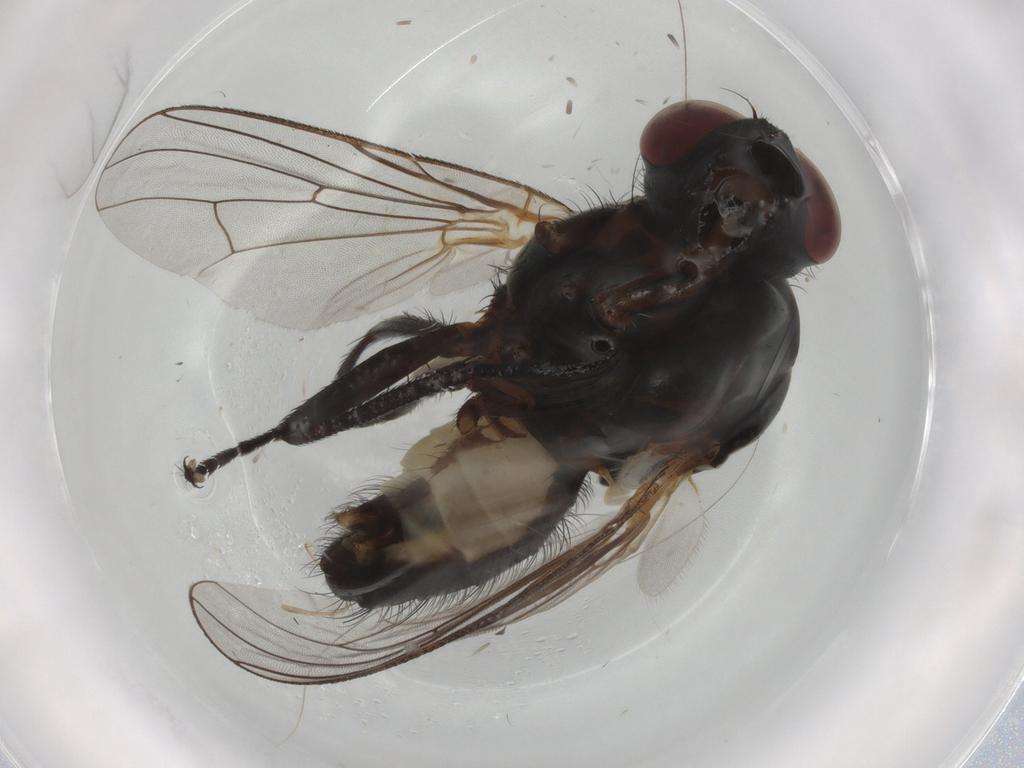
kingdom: Animalia
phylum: Arthropoda
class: Insecta
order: Diptera
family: Anthomyiidae
